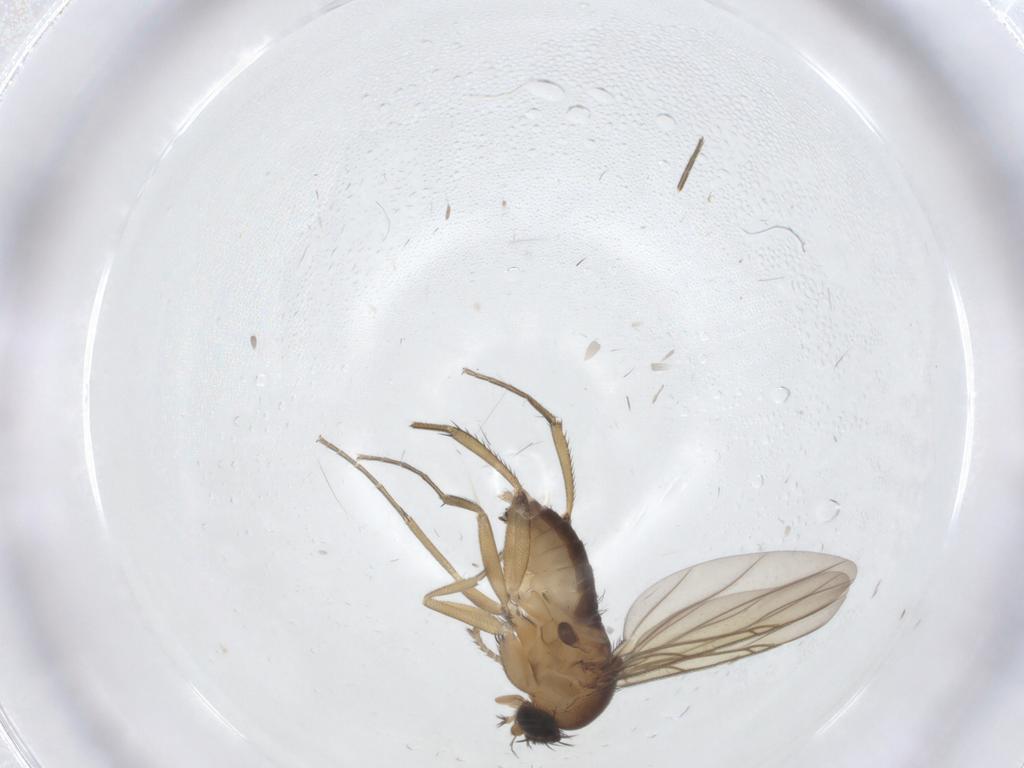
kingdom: Animalia
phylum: Arthropoda
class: Insecta
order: Diptera
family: Phoridae
